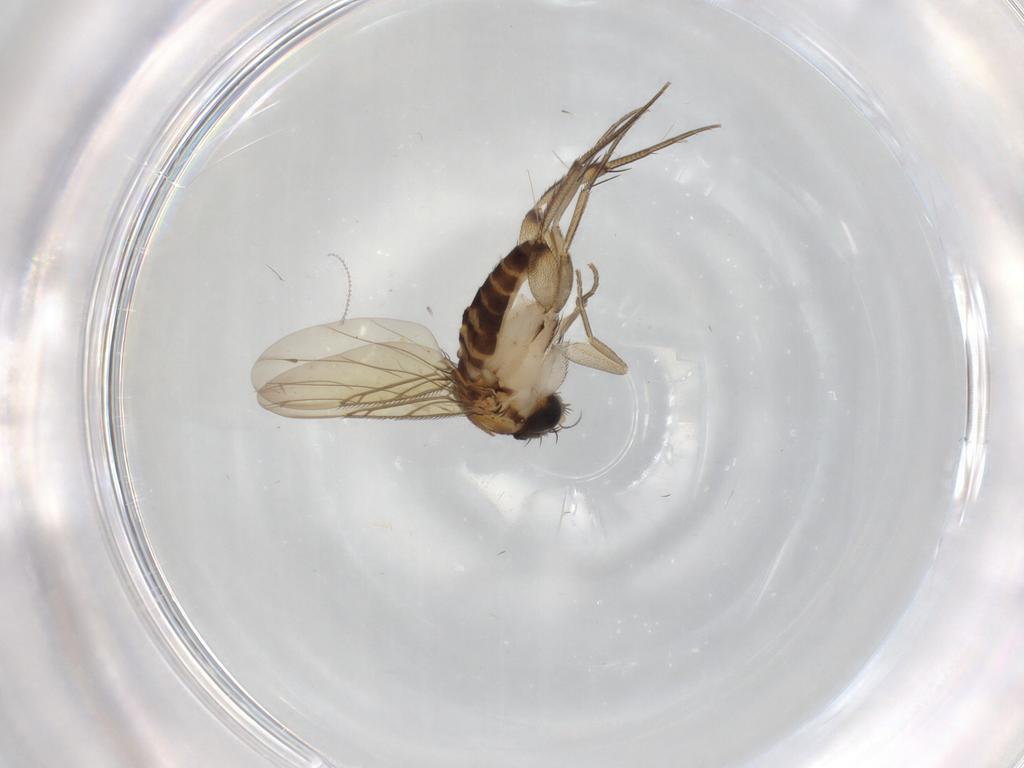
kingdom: Animalia
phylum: Arthropoda
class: Insecta
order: Diptera
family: Phoridae
